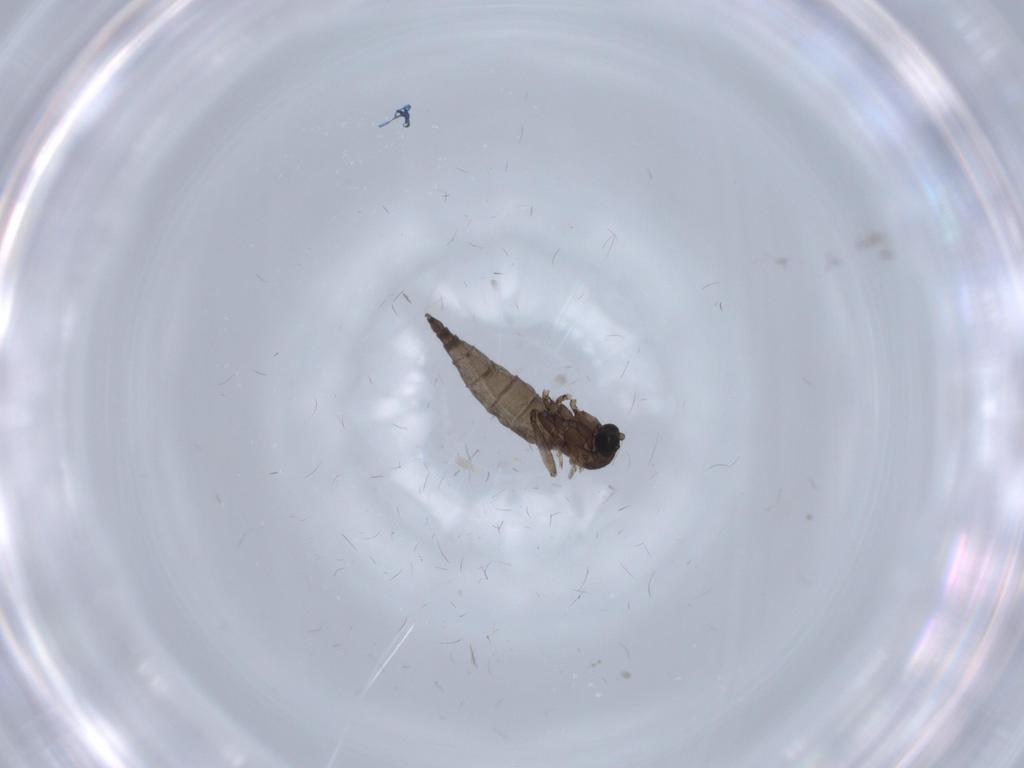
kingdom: Animalia
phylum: Arthropoda
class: Insecta
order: Diptera
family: Sciaridae
